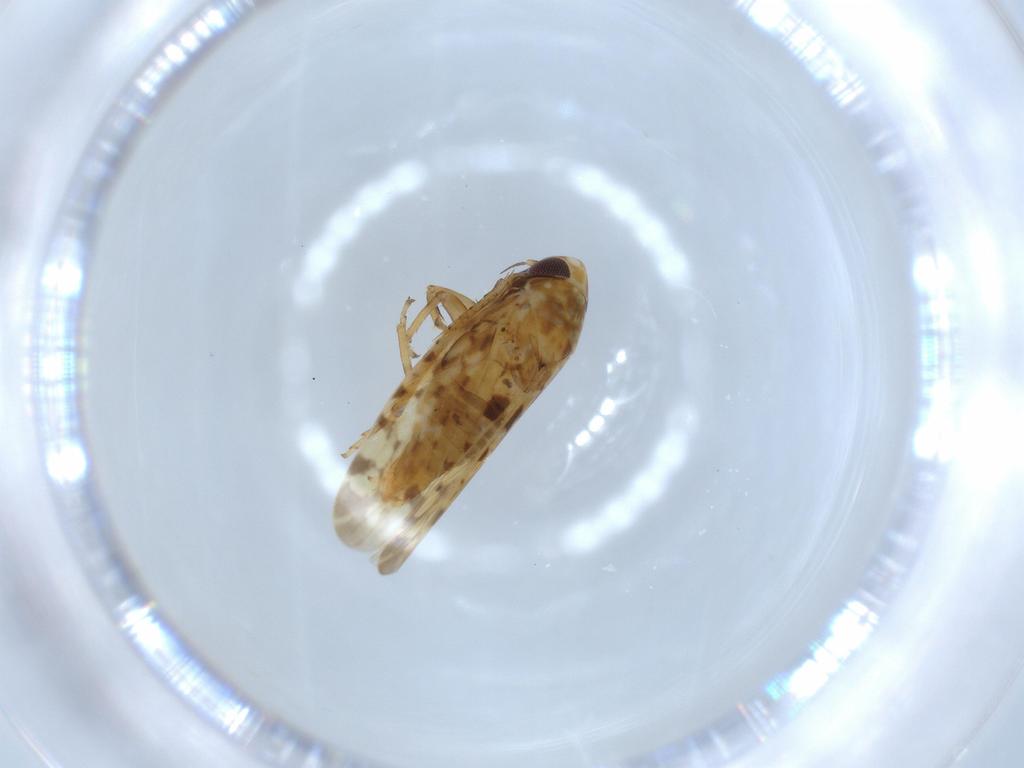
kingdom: Animalia
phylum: Arthropoda
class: Insecta
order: Hemiptera
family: Cicadellidae
